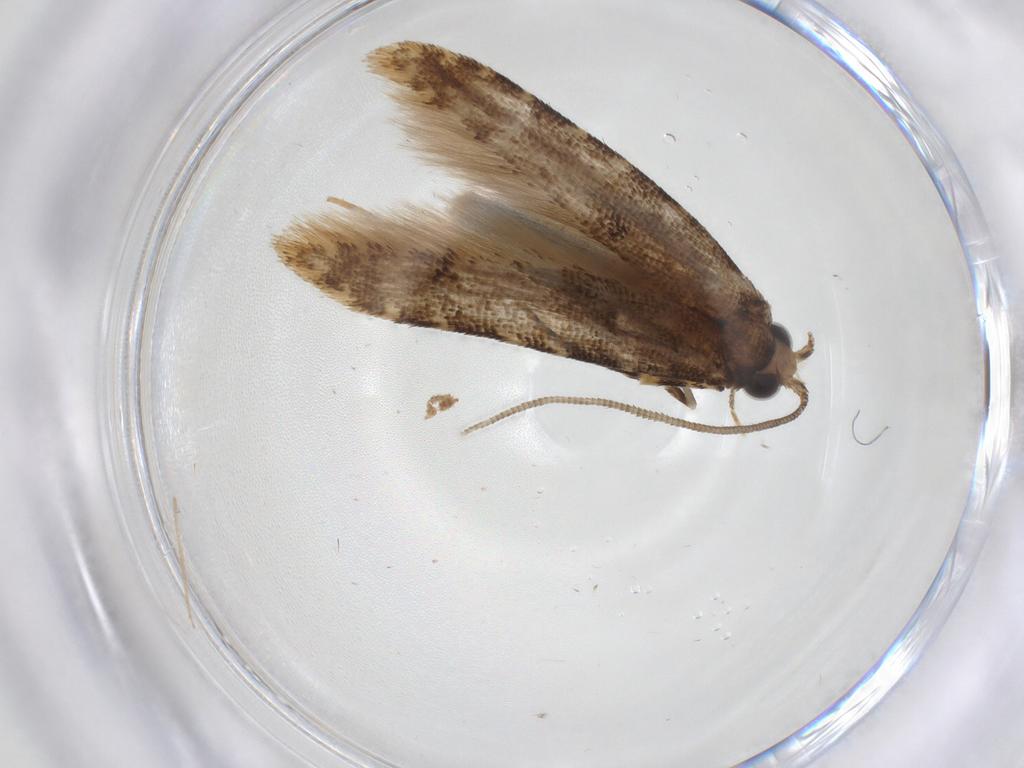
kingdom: Animalia
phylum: Arthropoda
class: Insecta
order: Lepidoptera
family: Tineidae
